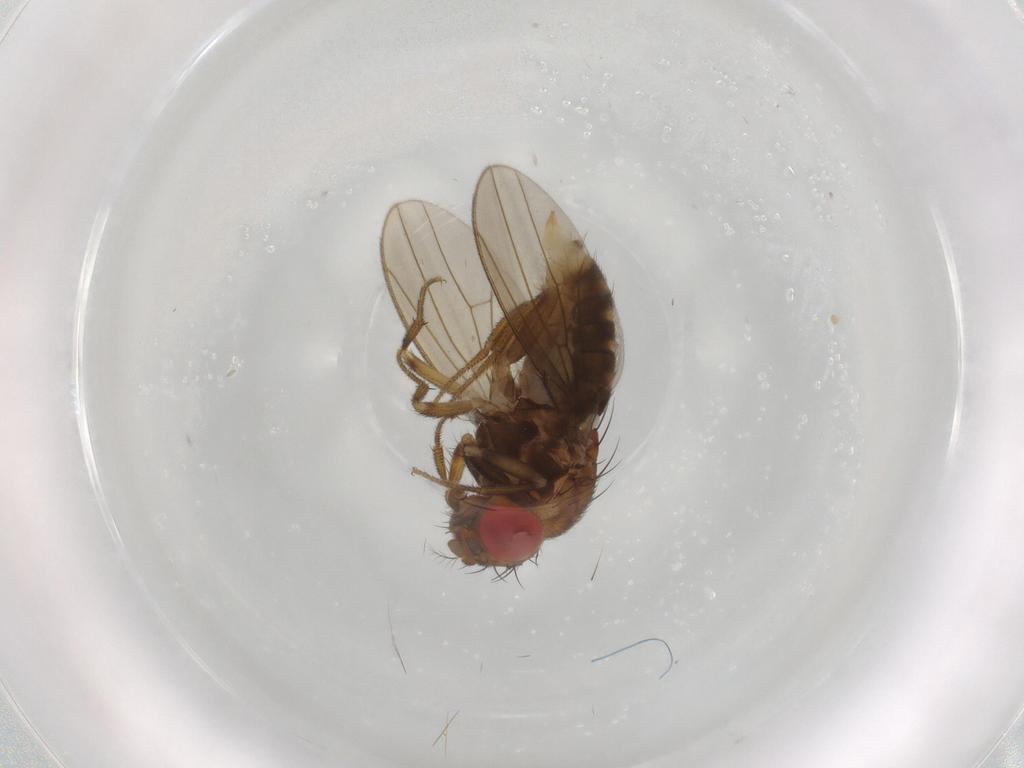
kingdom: Animalia
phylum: Arthropoda
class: Insecta
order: Diptera
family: Drosophilidae
